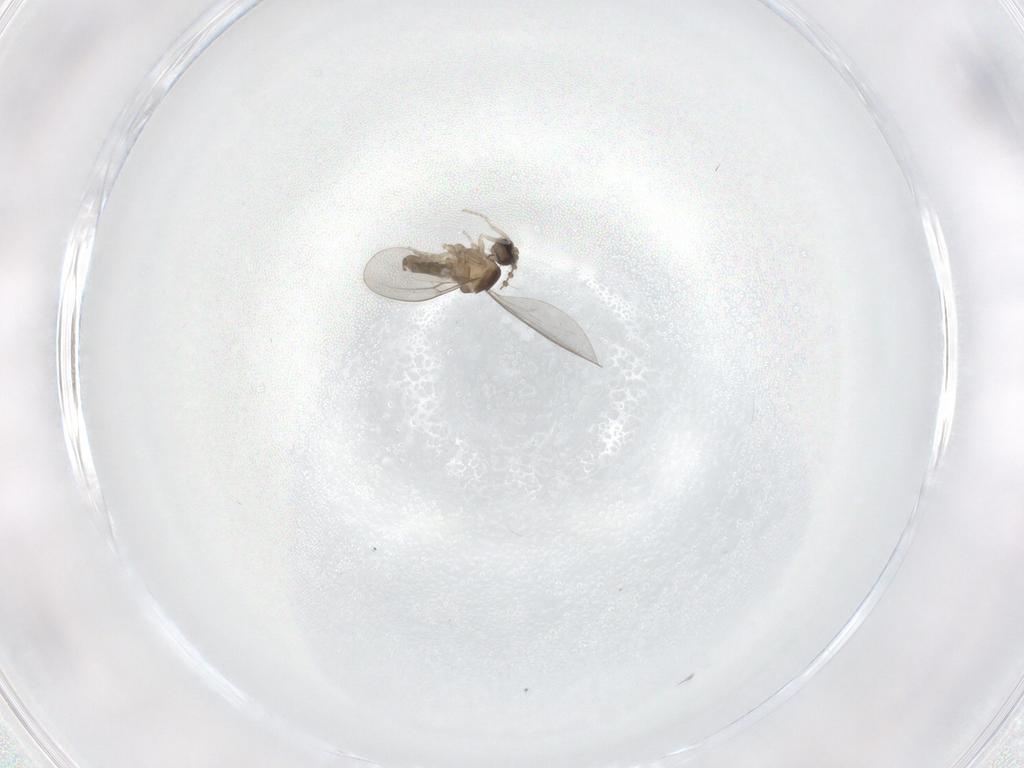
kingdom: Animalia
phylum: Arthropoda
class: Insecta
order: Diptera
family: Cecidomyiidae
